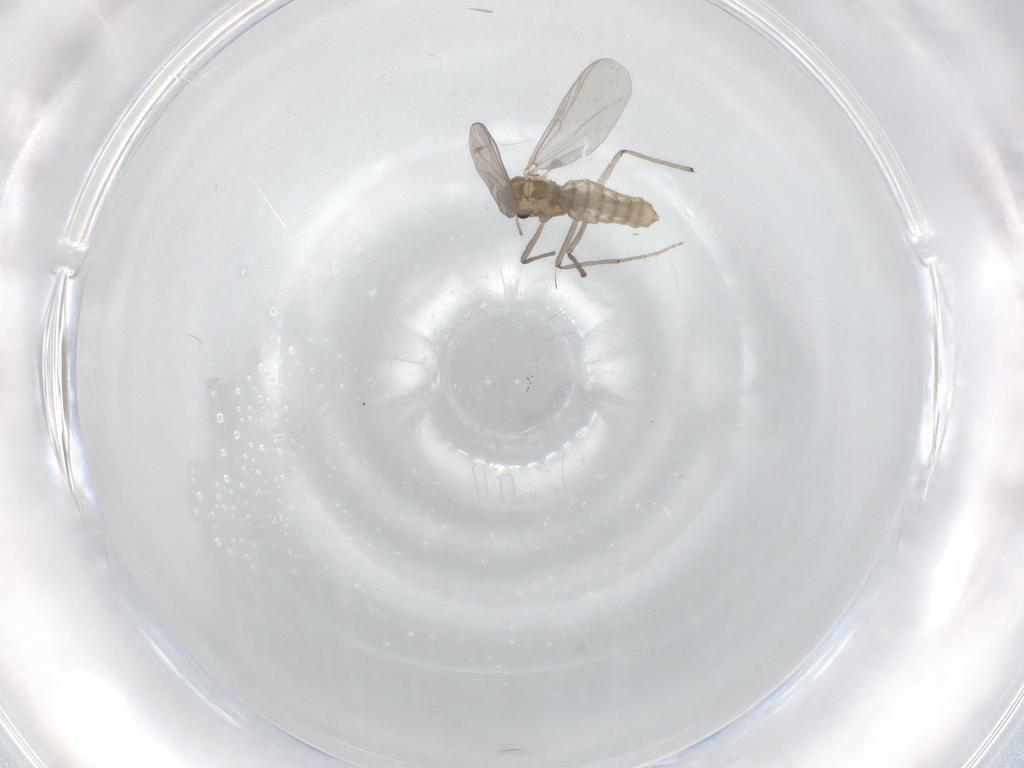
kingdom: Animalia
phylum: Arthropoda
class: Insecta
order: Diptera
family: Chironomidae
